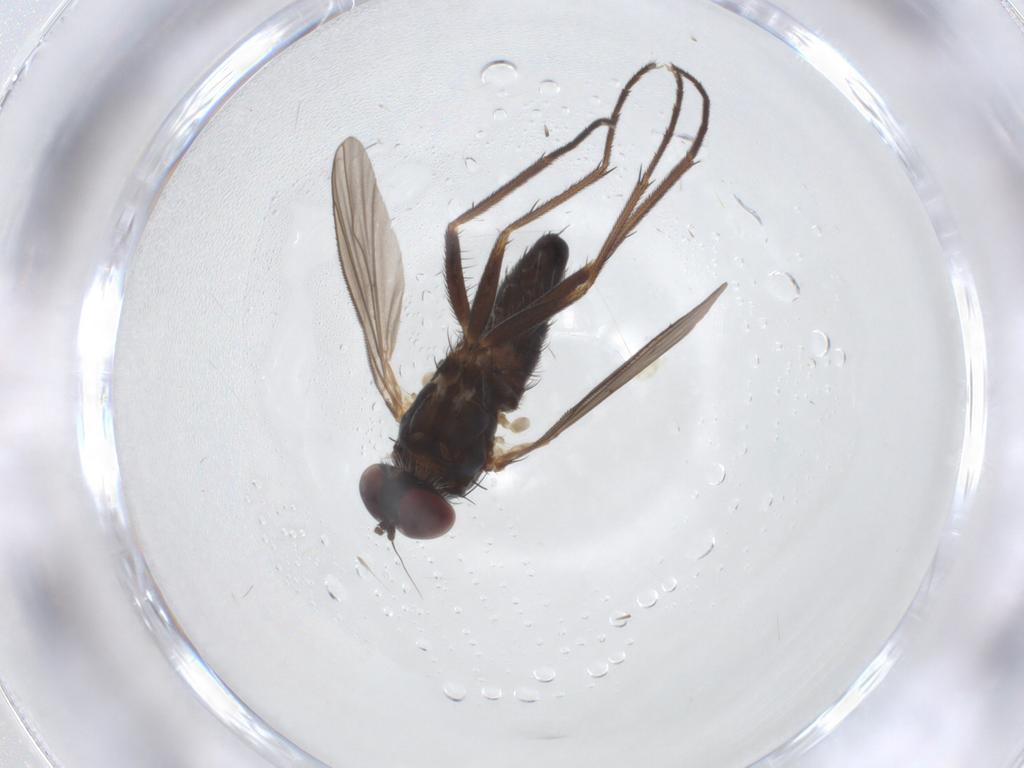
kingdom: Animalia
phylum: Arthropoda
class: Insecta
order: Diptera
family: Dolichopodidae
